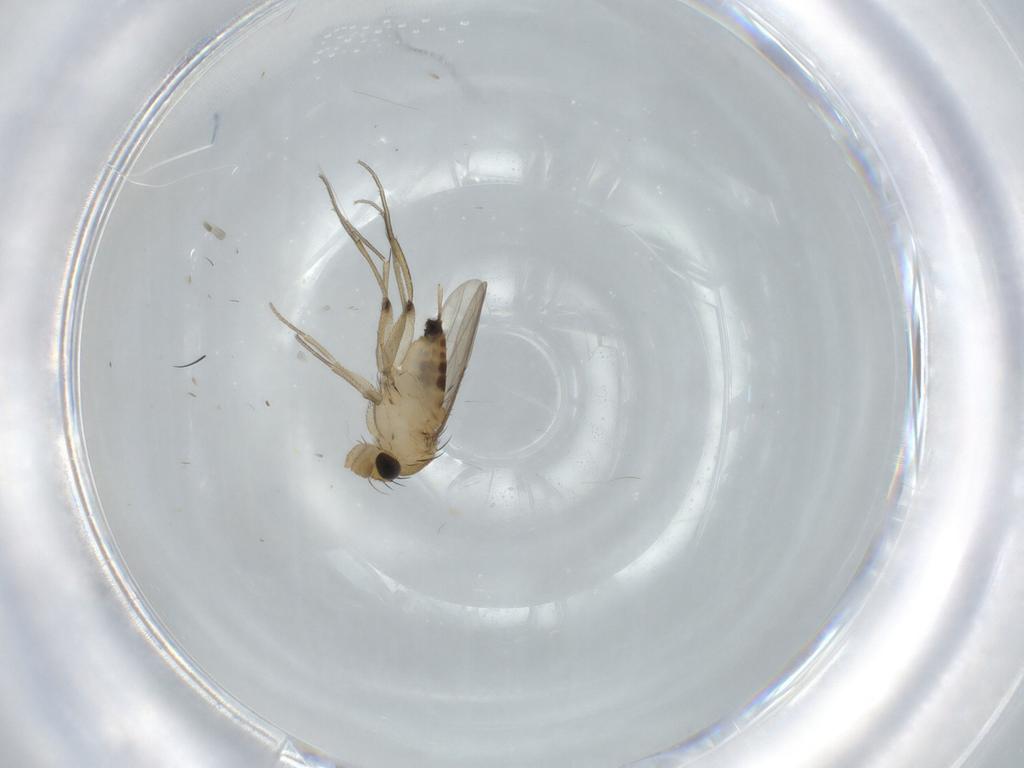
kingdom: Animalia
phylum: Arthropoda
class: Insecta
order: Diptera
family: Phoridae
